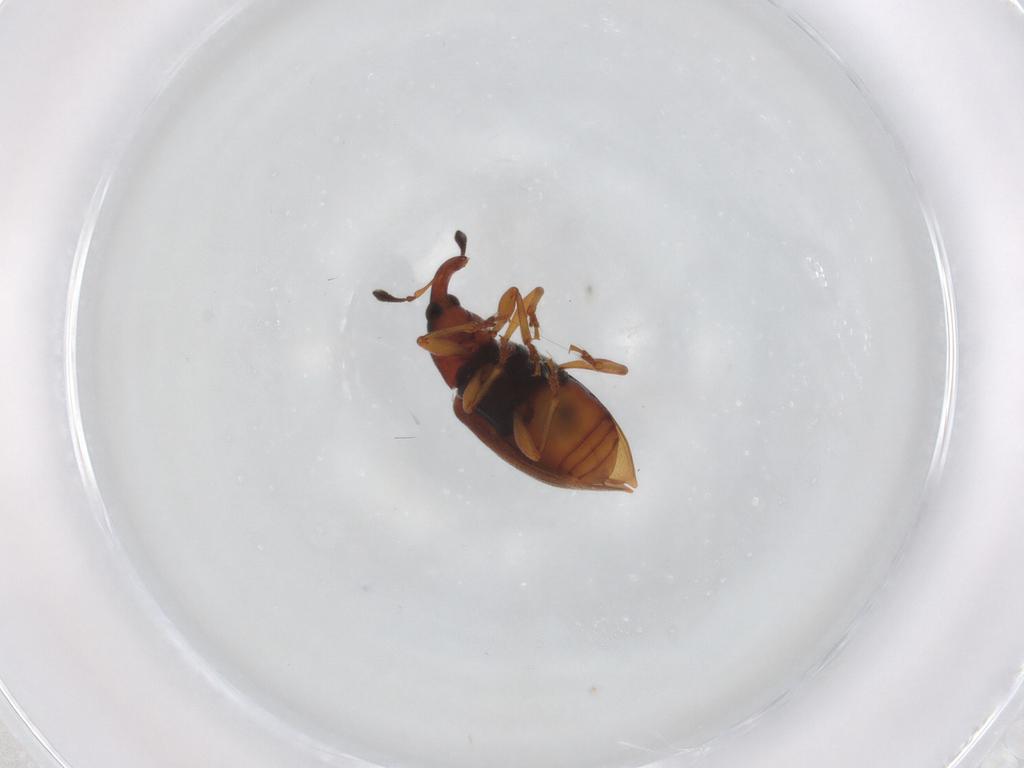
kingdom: Animalia
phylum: Arthropoda
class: Insecta
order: Coleoptera
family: Curculionidae
